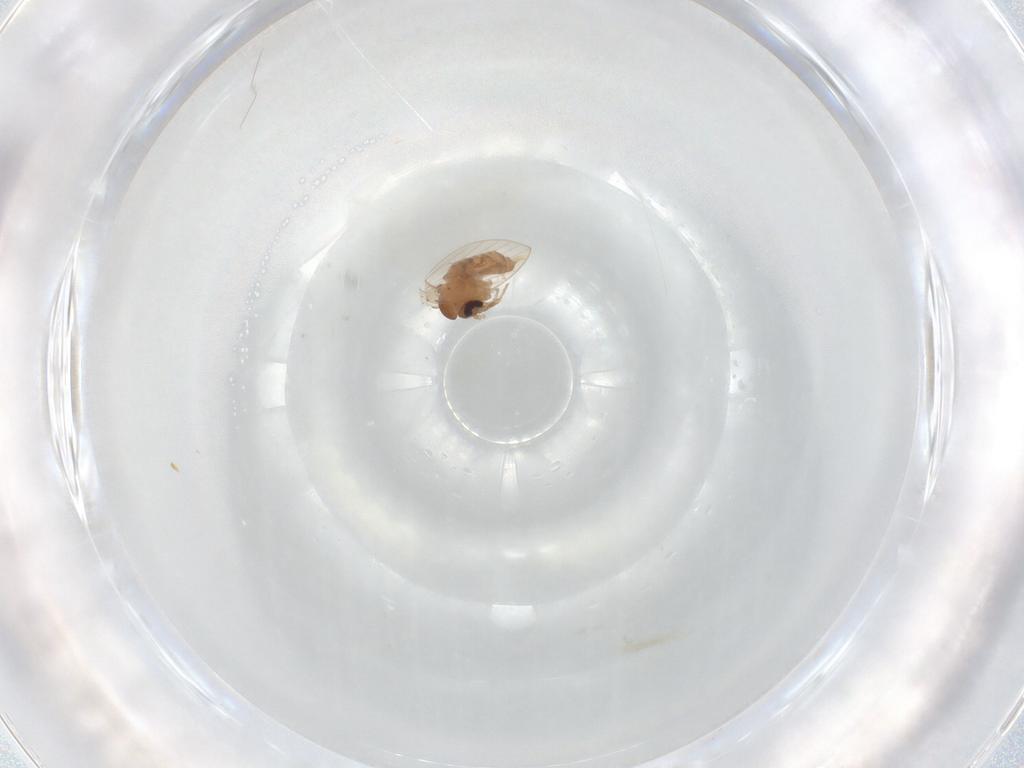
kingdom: Animalia
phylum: Arthropoda
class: Insecta
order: Diptera
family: Psychodidae
